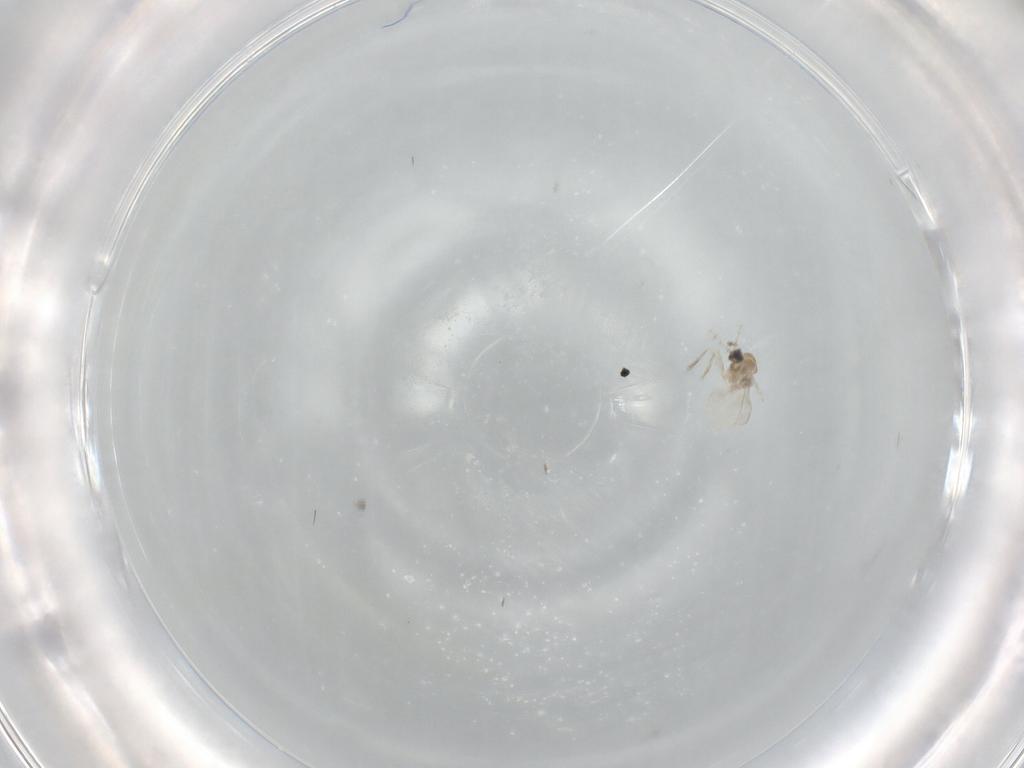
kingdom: Animalia
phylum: Arthropoda
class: Insecta
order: Diptera
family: Cecidomyiidae
